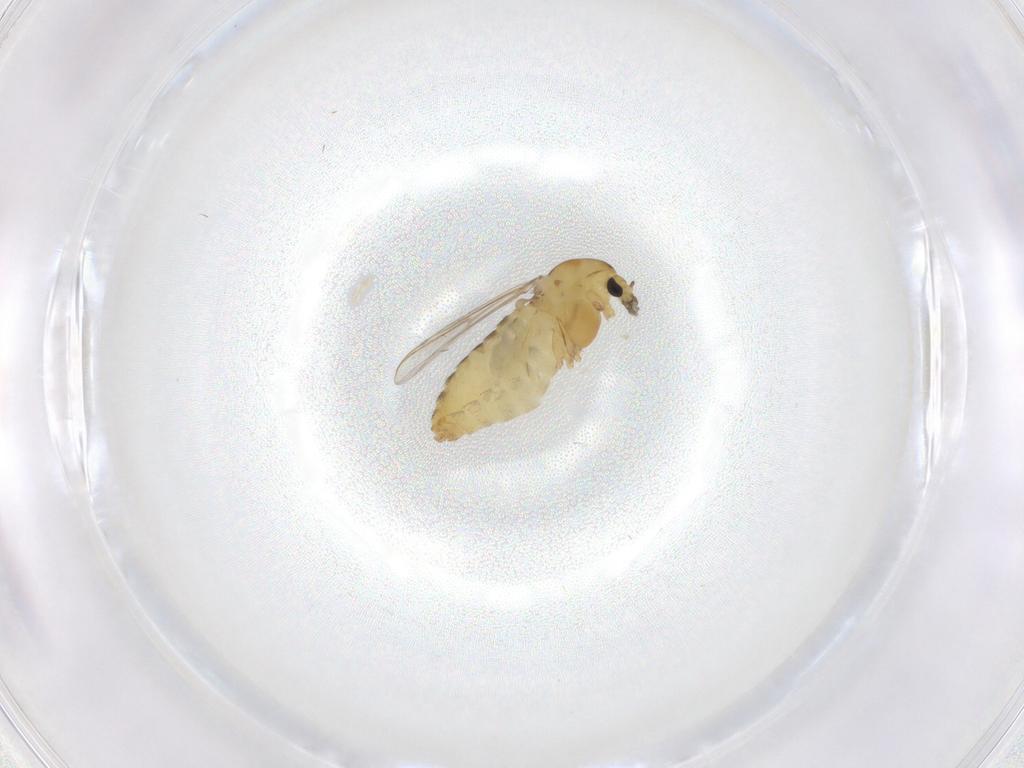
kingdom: Animalia
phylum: Arthropoda
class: Insecta
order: Diptera
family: Chironomidae
